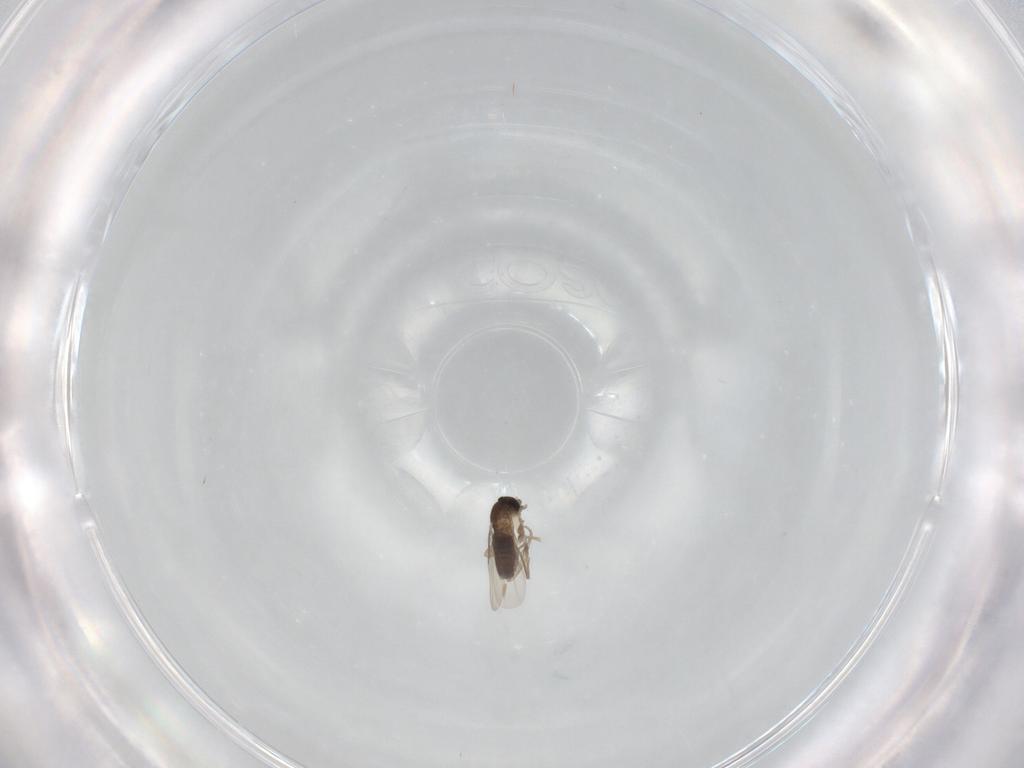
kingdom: Animalia
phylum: Arthropoda
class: Insecta
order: Diptera
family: Phoridae
